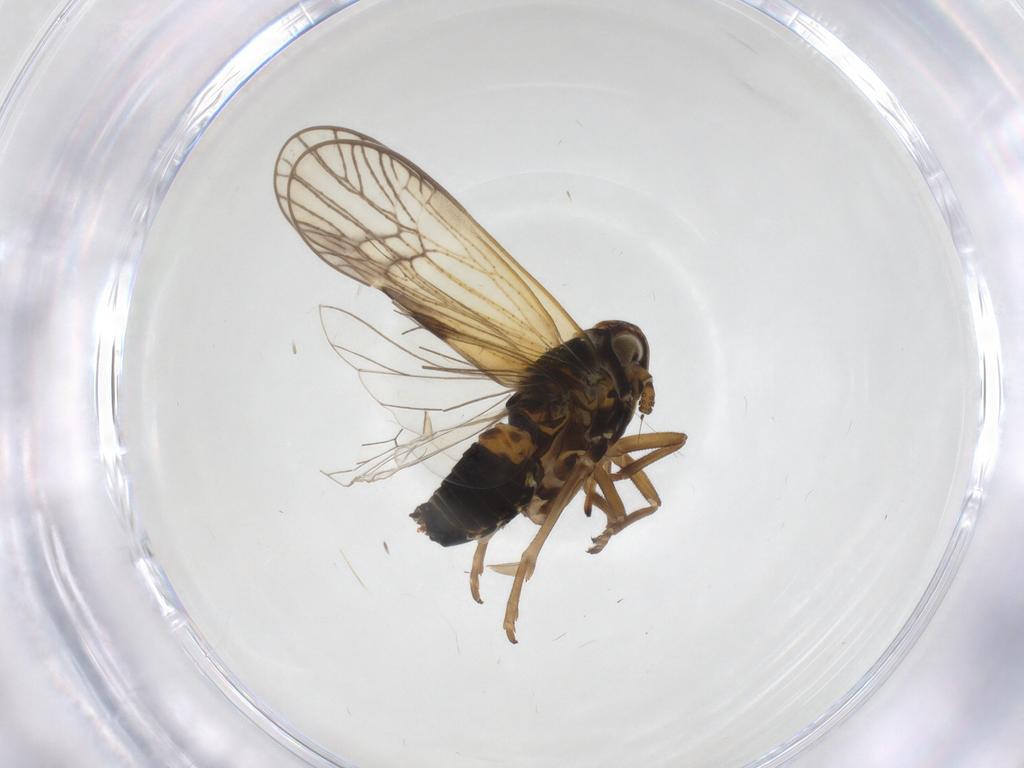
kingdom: Animalia
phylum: Arthropoda
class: Insecta
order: Hemiptera
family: Delphacidae
